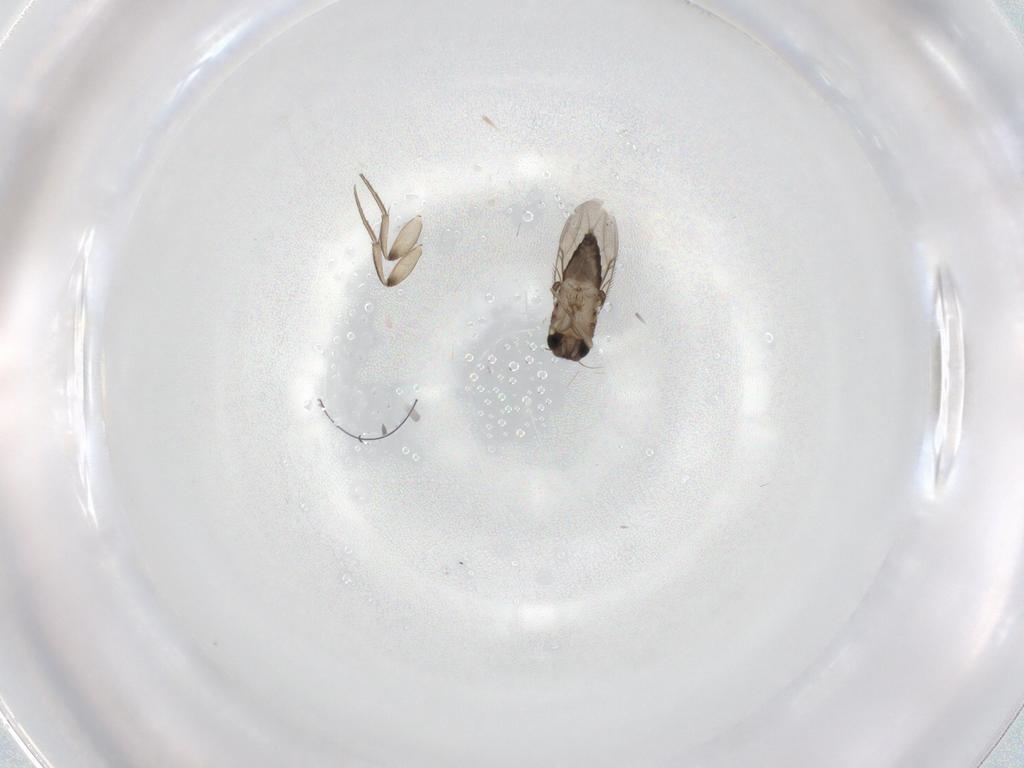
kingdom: Animalia
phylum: Arthropoda
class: Insecta
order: Diptera
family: Phoridae
